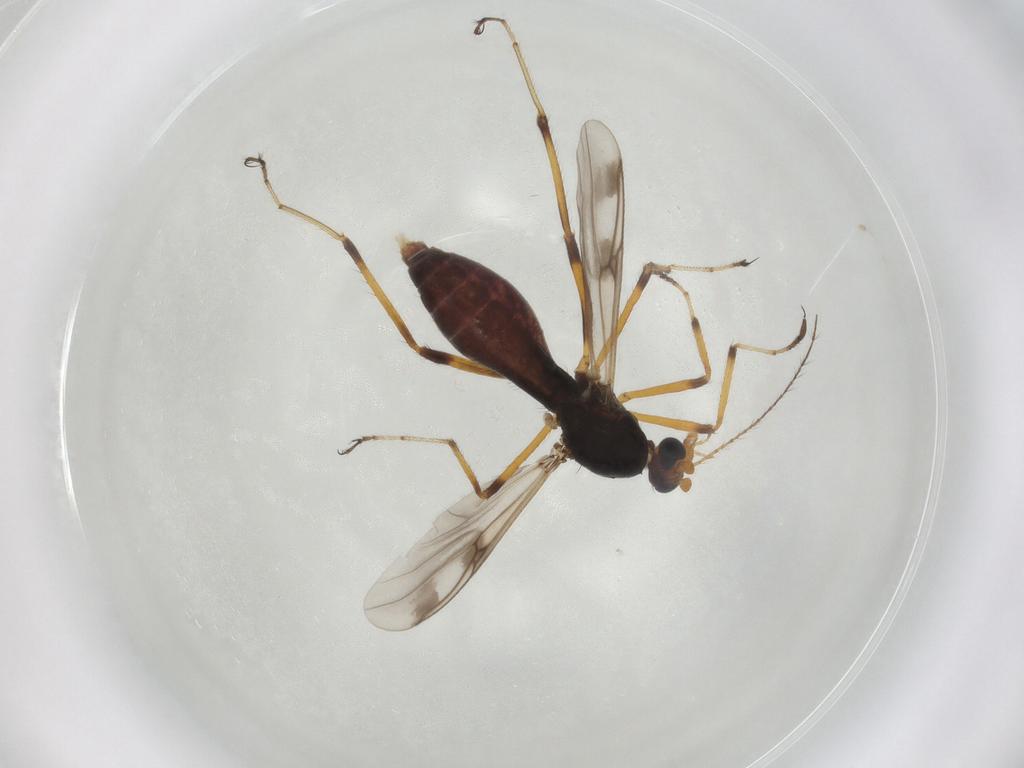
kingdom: Animalia
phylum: Arthropoda
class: Insecta
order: Diptera
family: Ceratopogonidae
